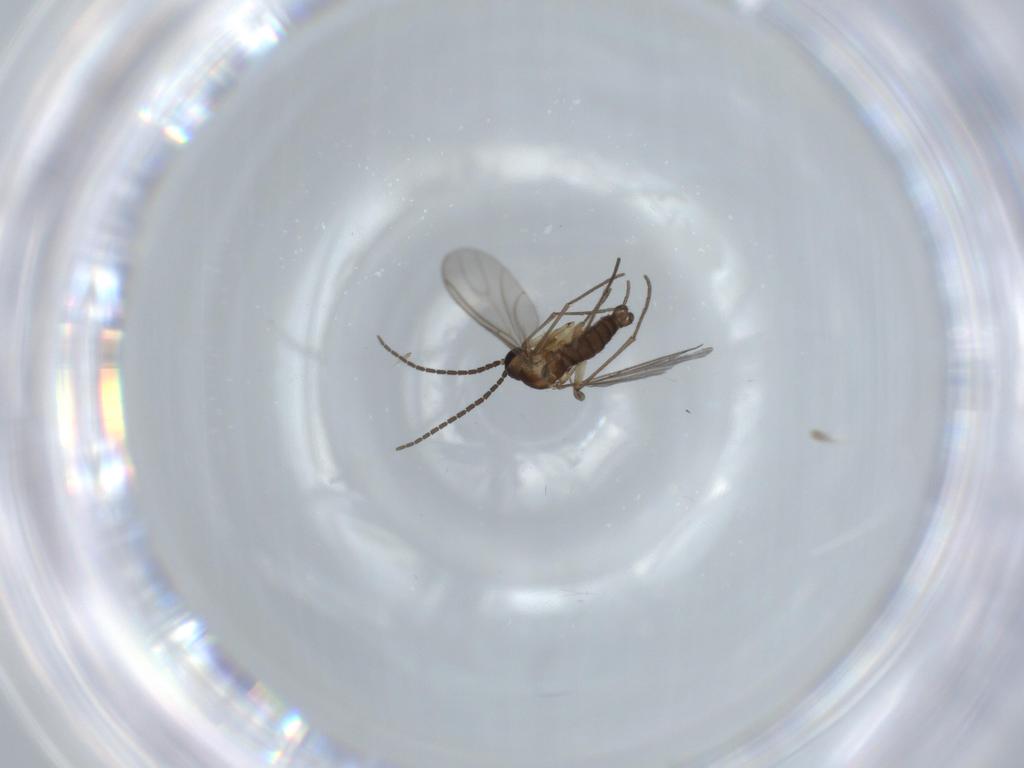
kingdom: Animalia
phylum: Arthropoda
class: Insecta
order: Diptera
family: Sciaridae
